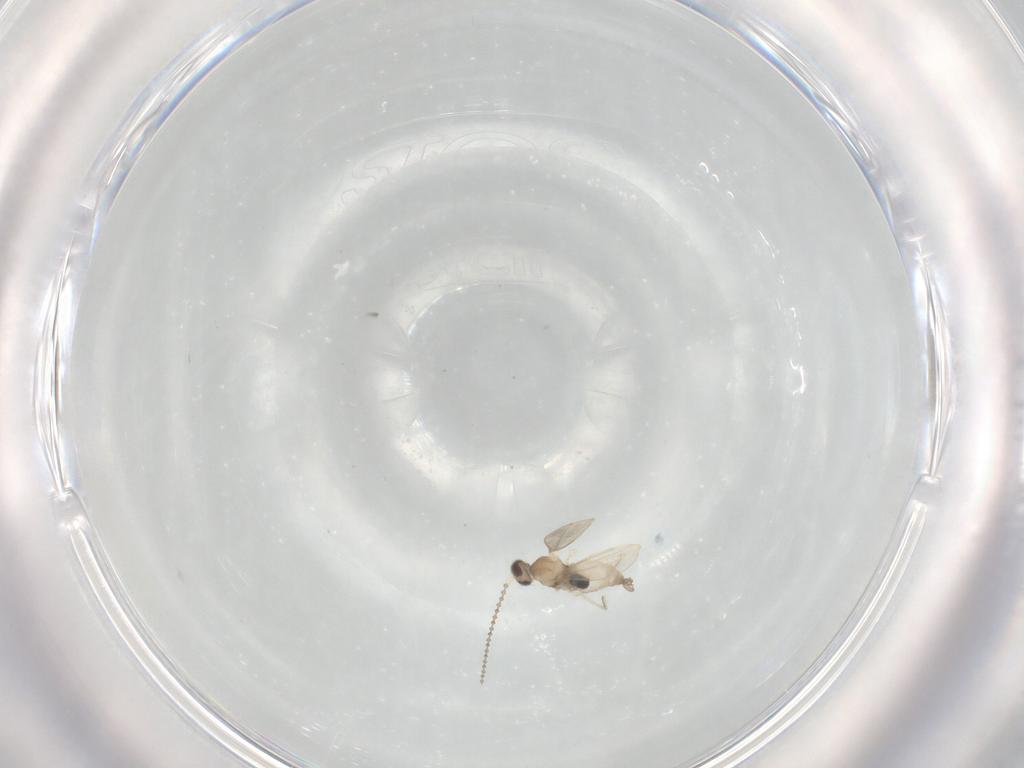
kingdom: Animalia
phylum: Arthropoda
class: Insecta
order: Diptera
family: Cecidomyiidae
